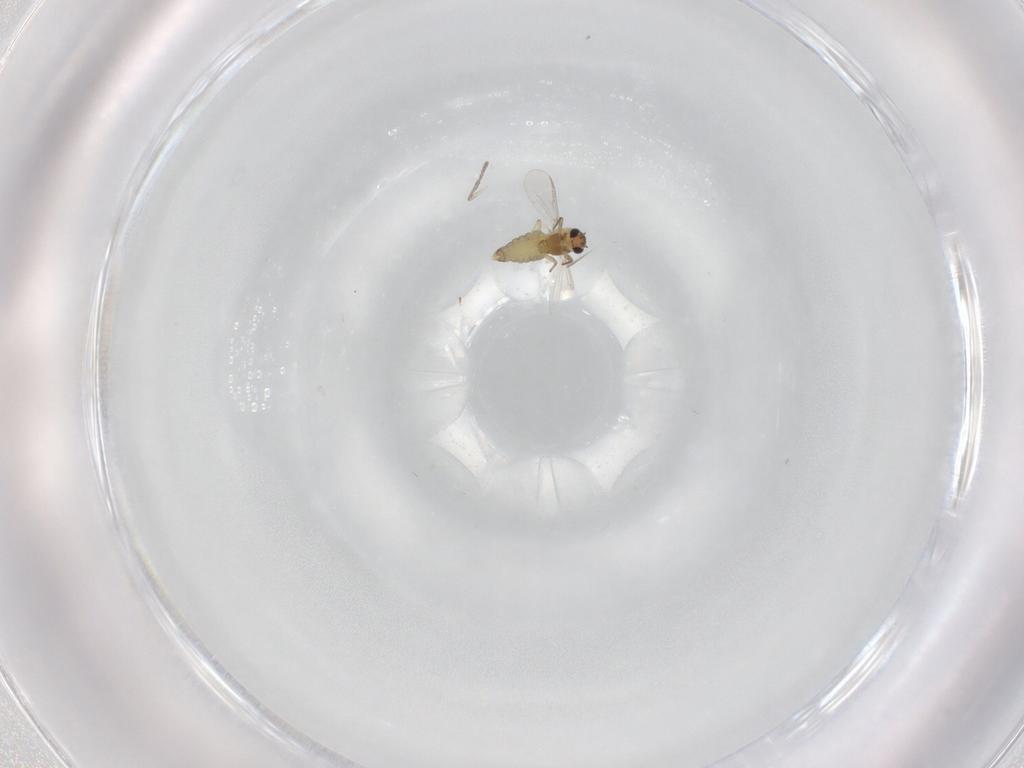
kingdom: Animalia
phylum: Arthropoda
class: Insecta
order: Diptera
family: Chironomidae
